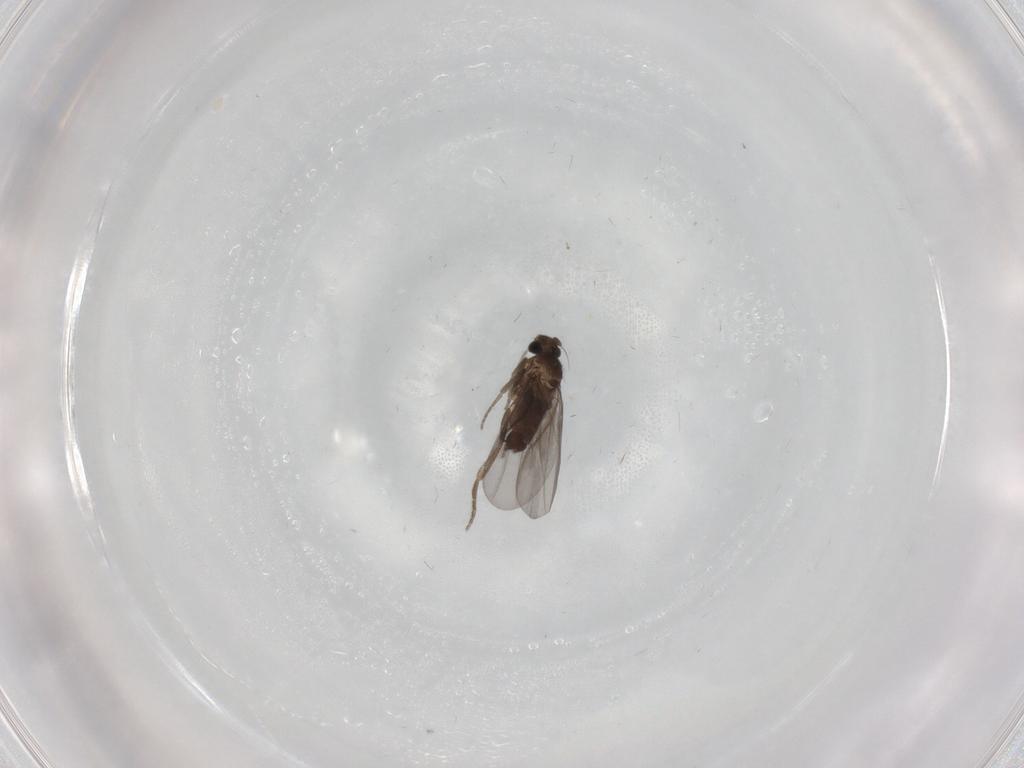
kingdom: Animalia
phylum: Arthropoda
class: Insecta
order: Diptera
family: Phoridae
